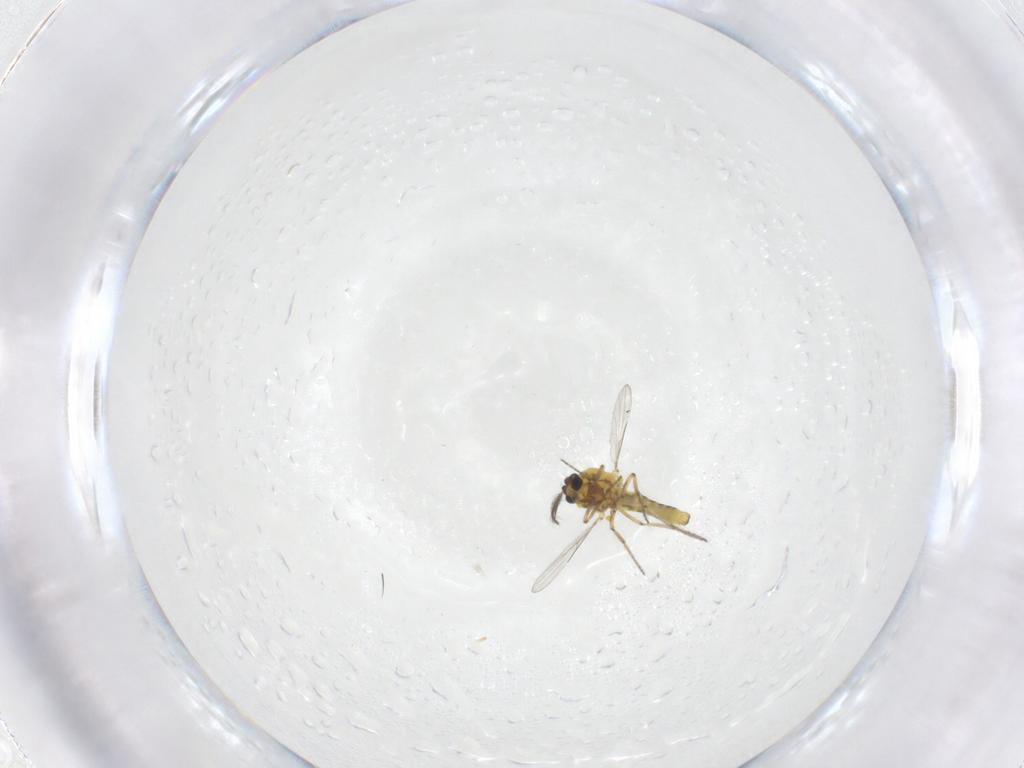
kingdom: Animalia
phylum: Arthropoda
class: Insecta
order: Diptera
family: Ceratopogonidae
